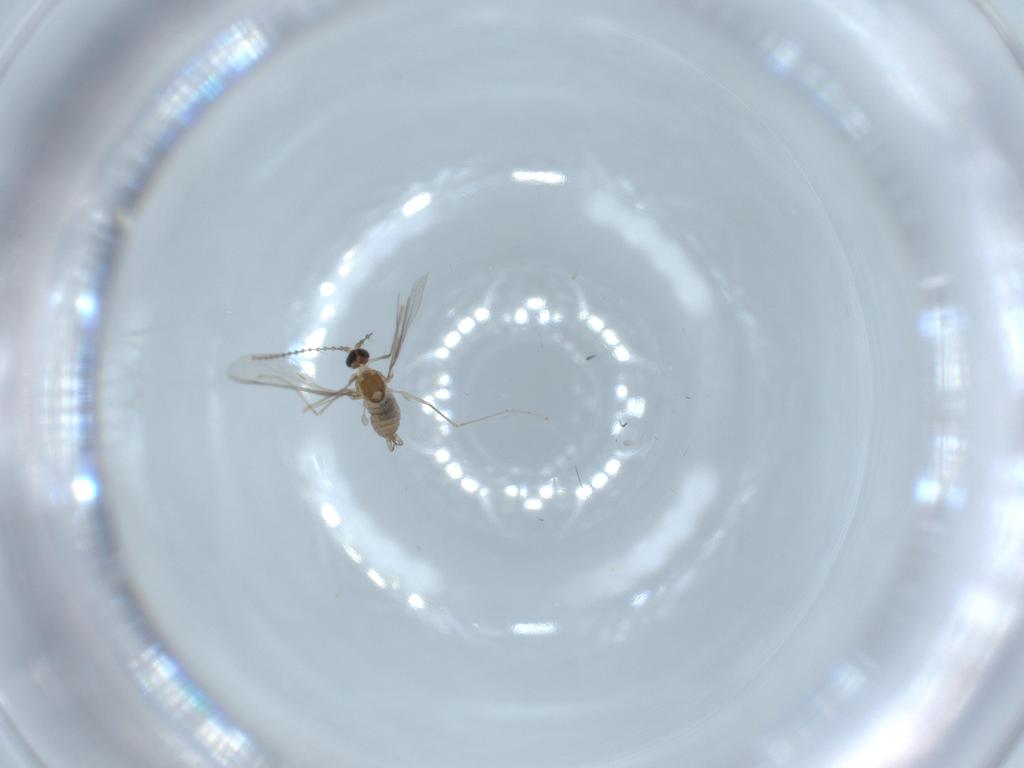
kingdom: Animalia
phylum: Arthropoda
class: Insecta
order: Diptera
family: Cecidomyiidae
